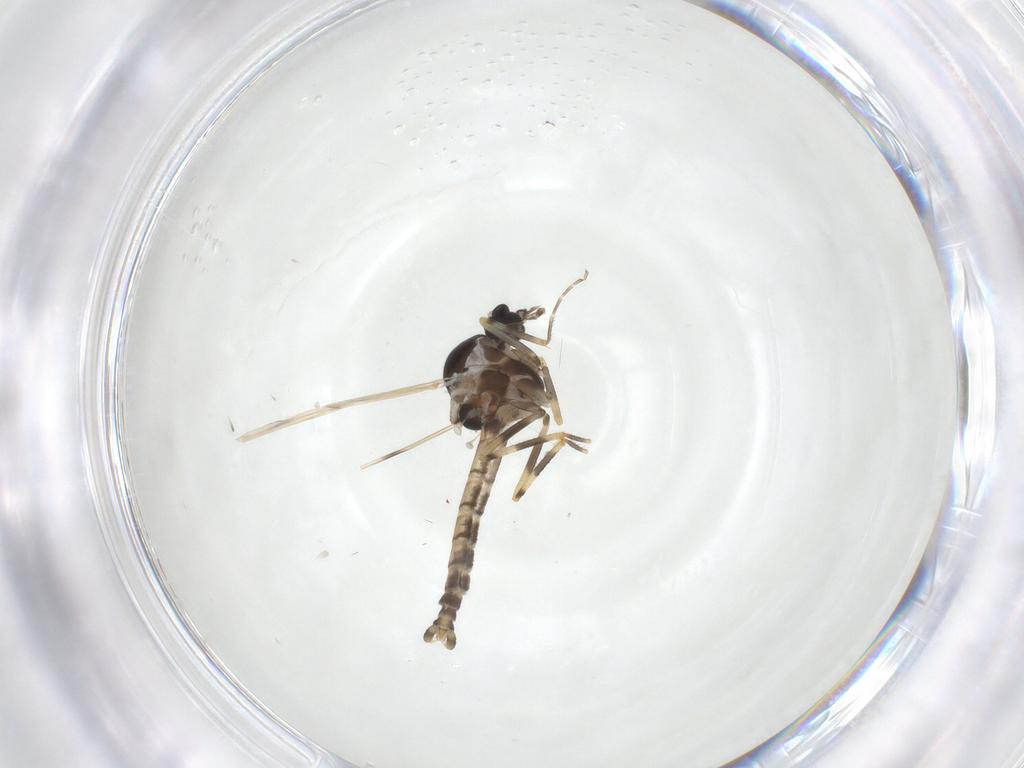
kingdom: Animalia
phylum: Arthropoda
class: Insecta
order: Diptera
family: Ceratopogonidae
